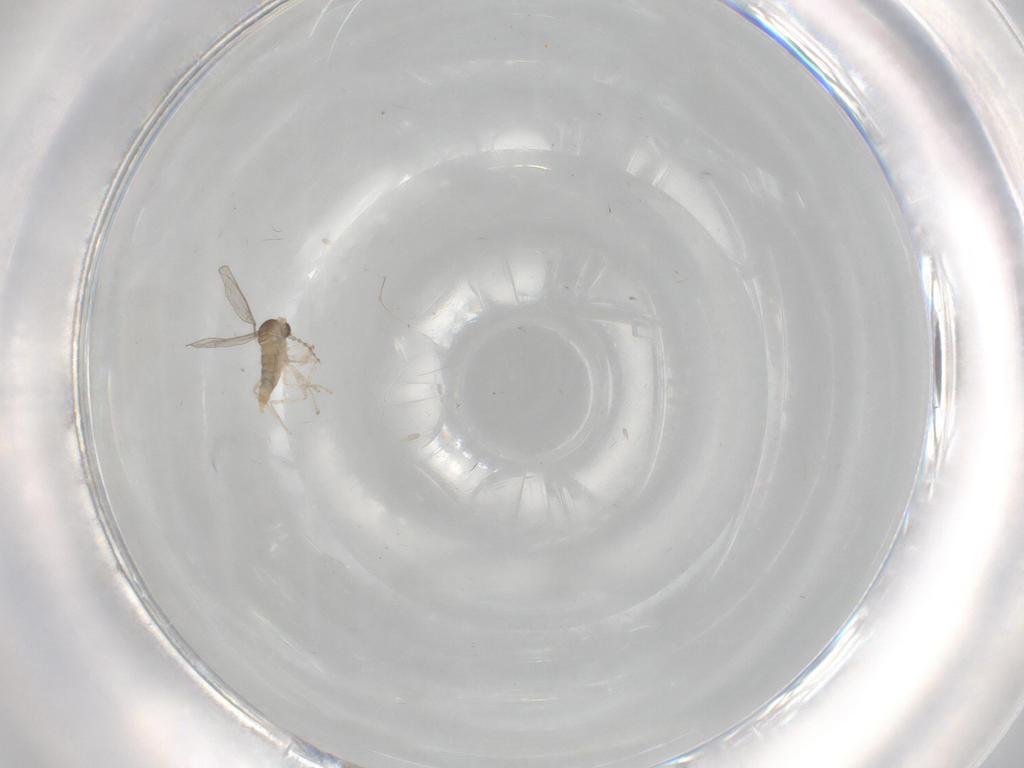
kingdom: Animalia
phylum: Arthropoda
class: Insecta
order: Diptera
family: Cecidomyiidae
